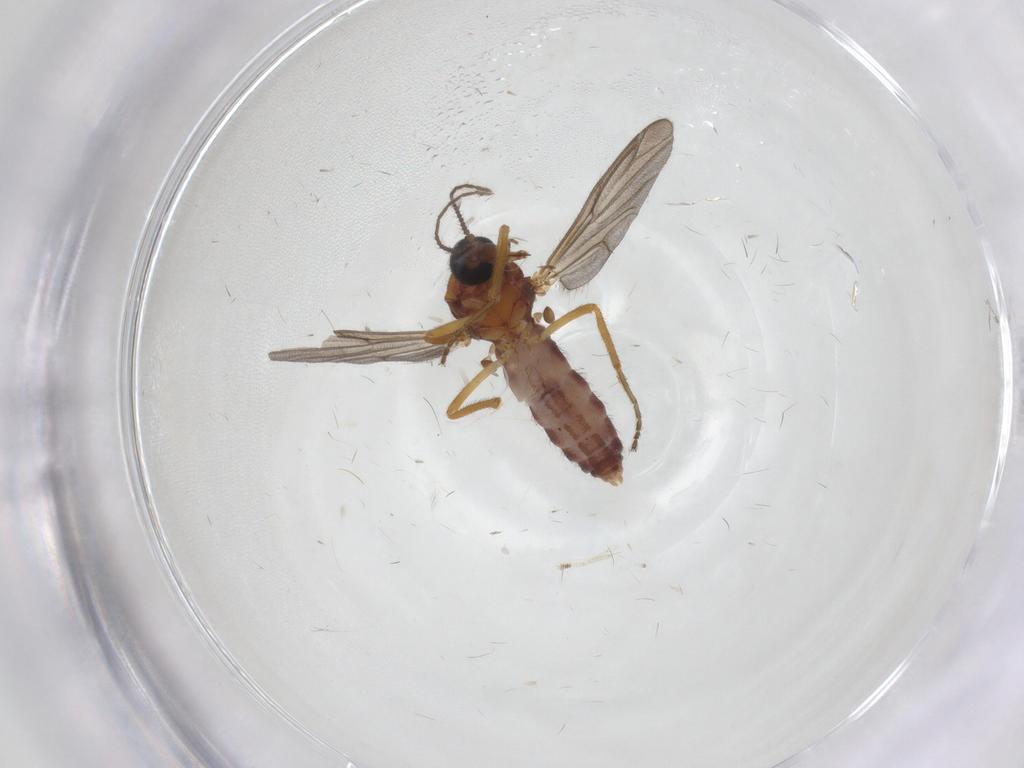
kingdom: Animalia
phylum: Arthropoda
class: Insecta
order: Diptera
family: Ceratopogonidae
